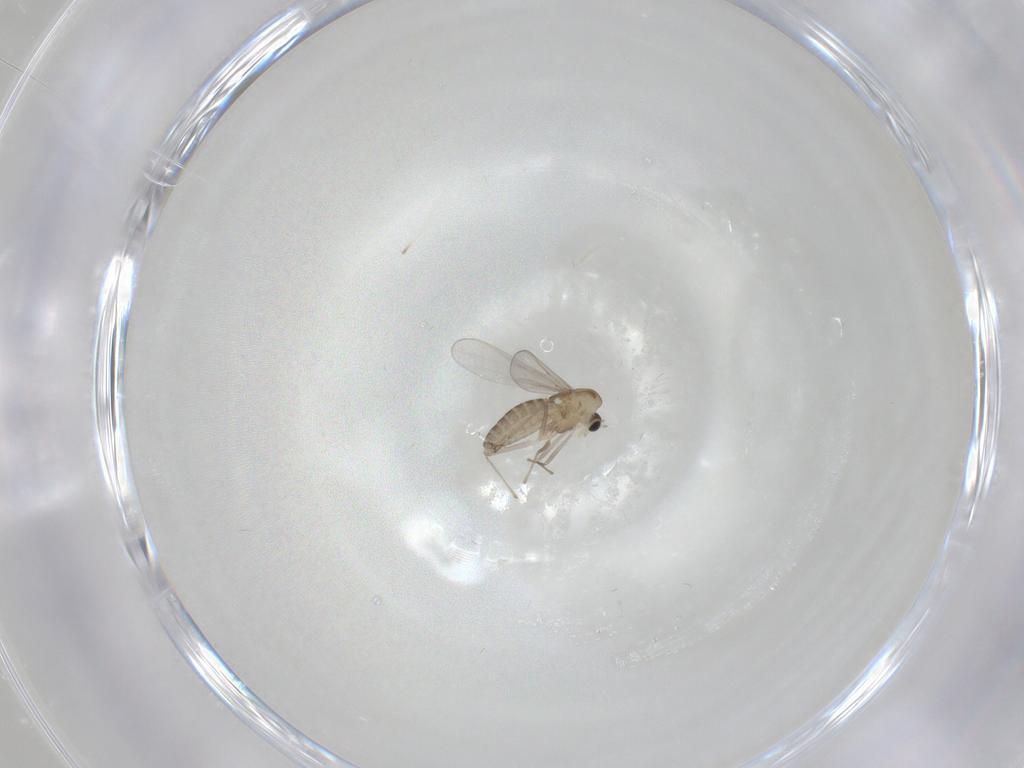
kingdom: Animalia
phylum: Arthropoda
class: Insecta
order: Diptera
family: Chironomidae
